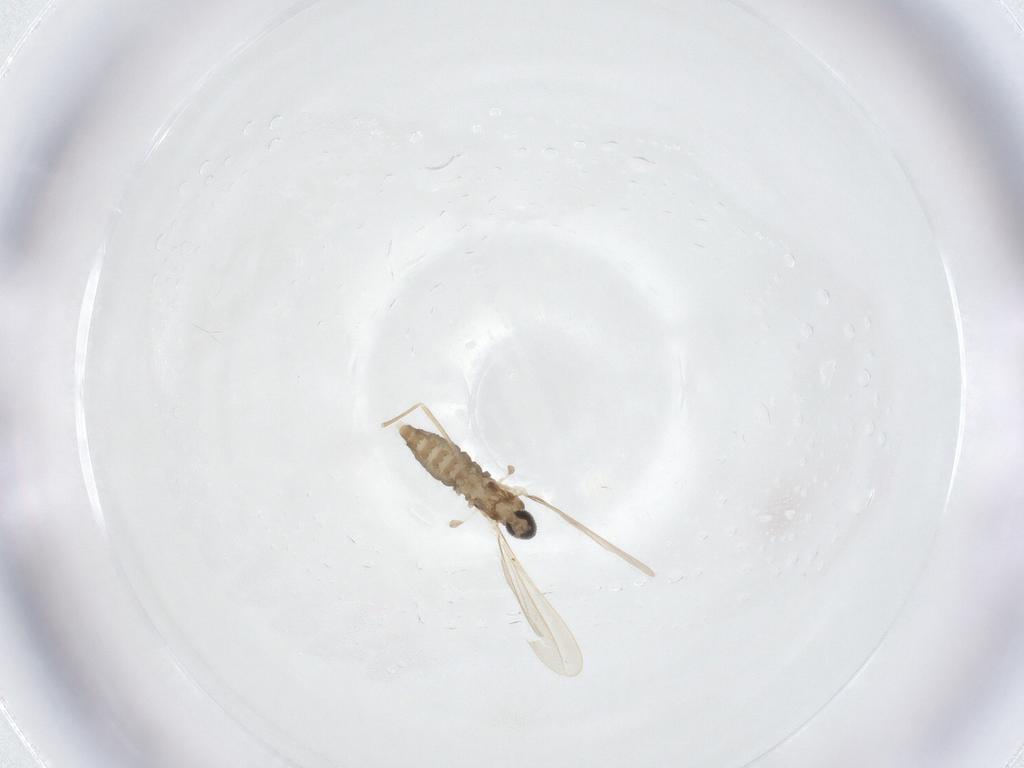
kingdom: Animalia
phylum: Arthropoda
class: Insecta
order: Diptera
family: Cecidomyiidae
